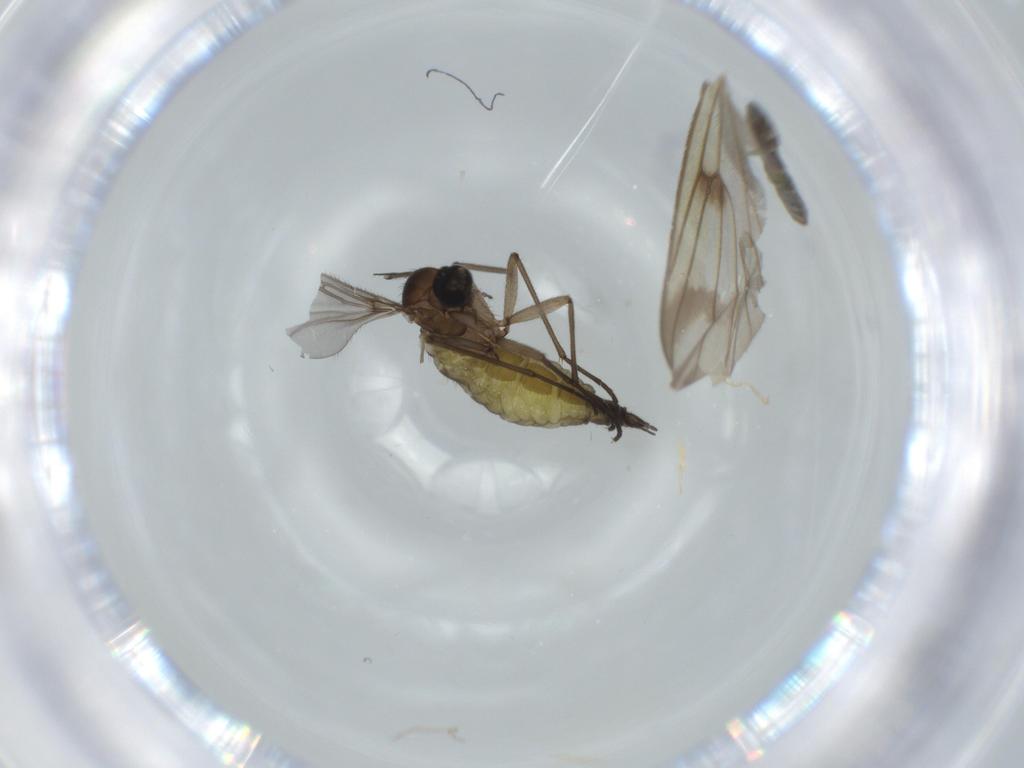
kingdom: Animalia
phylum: Arthropoda
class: Insecta
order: Diptera
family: Sciaridae
